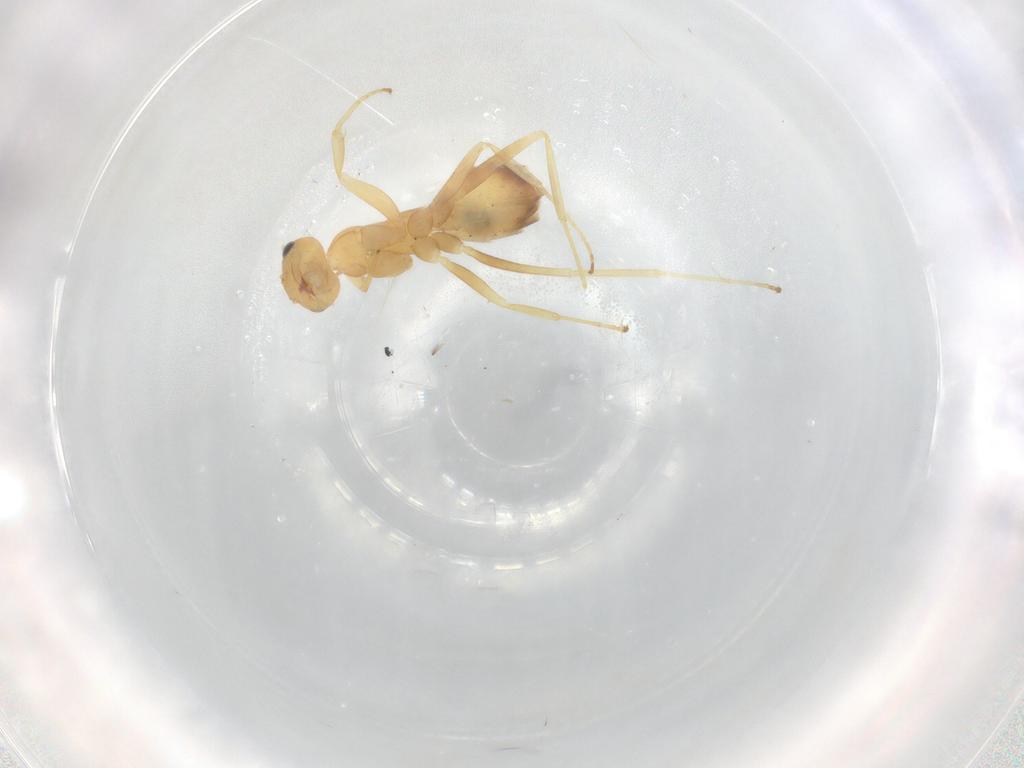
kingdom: Animalia
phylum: Arthropoda
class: Insecta
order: Hymenoptera
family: Formicidae
